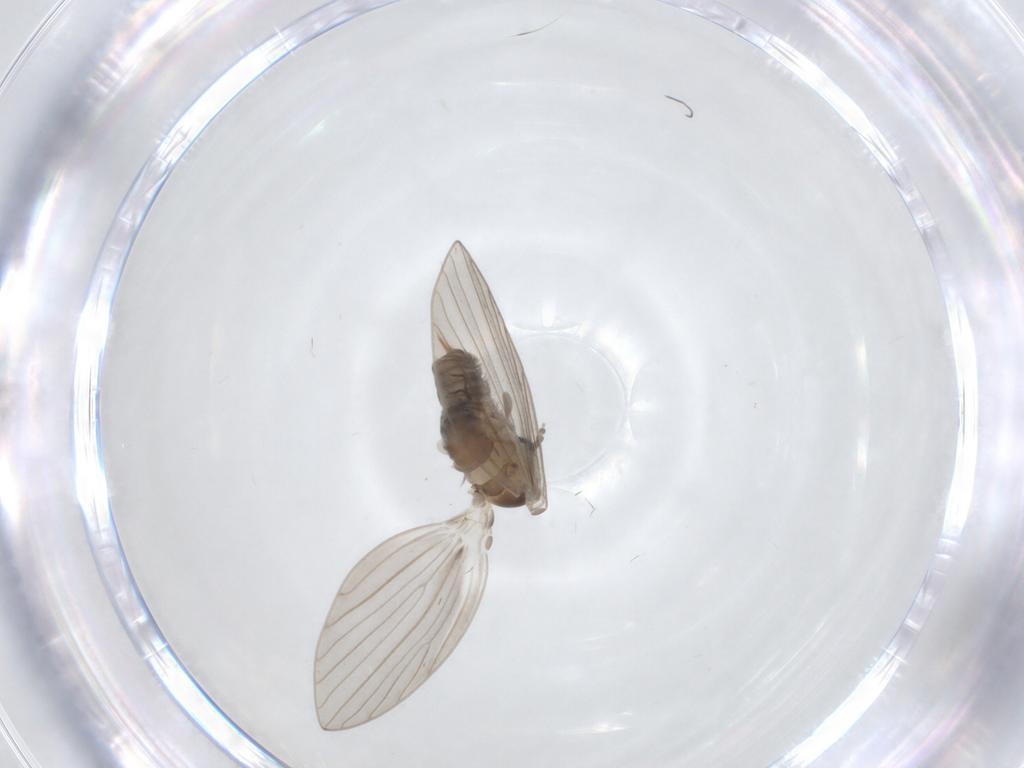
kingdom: Animalia
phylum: Arthropoda
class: Insecta
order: Diptera
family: Psychodidae
